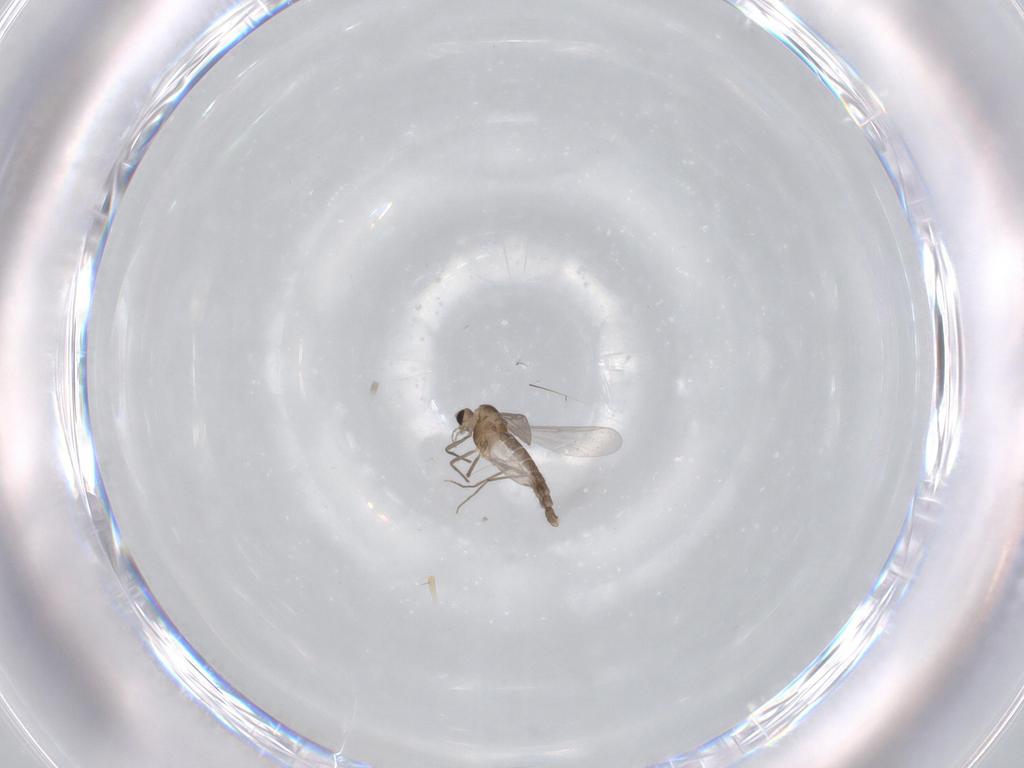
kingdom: Animalia
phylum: Arthropoda
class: Insecta
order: Diptera
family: Chironomidae
